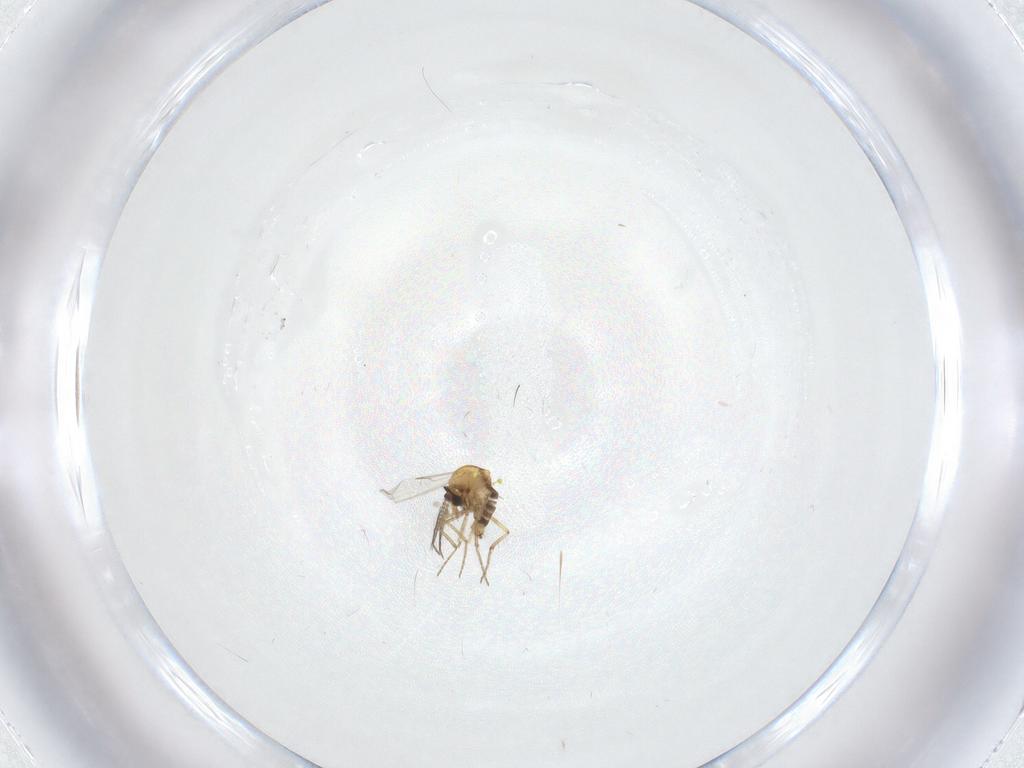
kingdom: Animalia
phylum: Arthropoda
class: Insecta
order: Diptera
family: Ceratopogonidae
